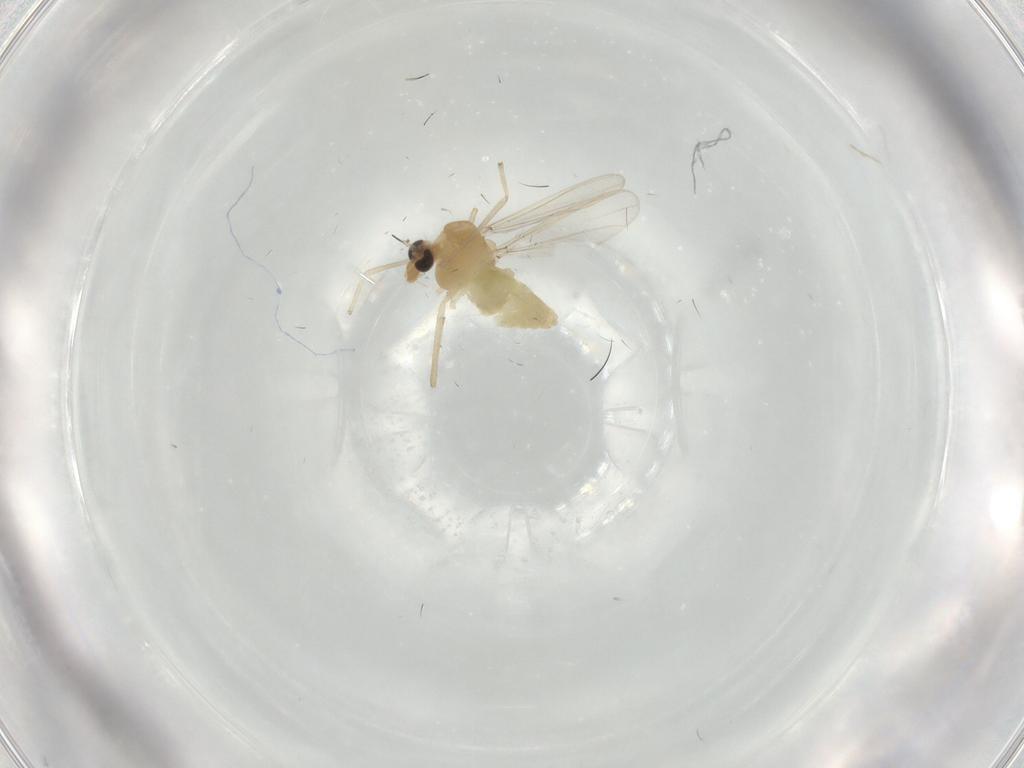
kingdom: Animalia
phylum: Arthropoda
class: Insecta
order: Diptera
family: Chironomidae
